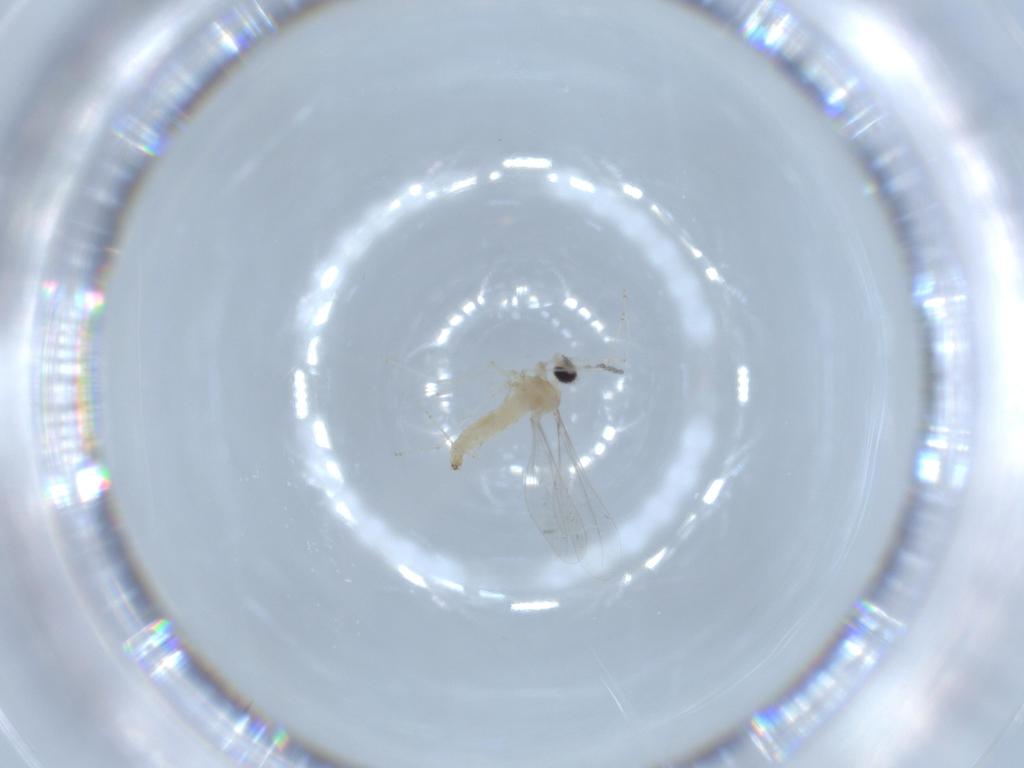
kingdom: Animalia
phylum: Arthropoda
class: Insecta
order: Diptera
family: Cecidomyiidae
